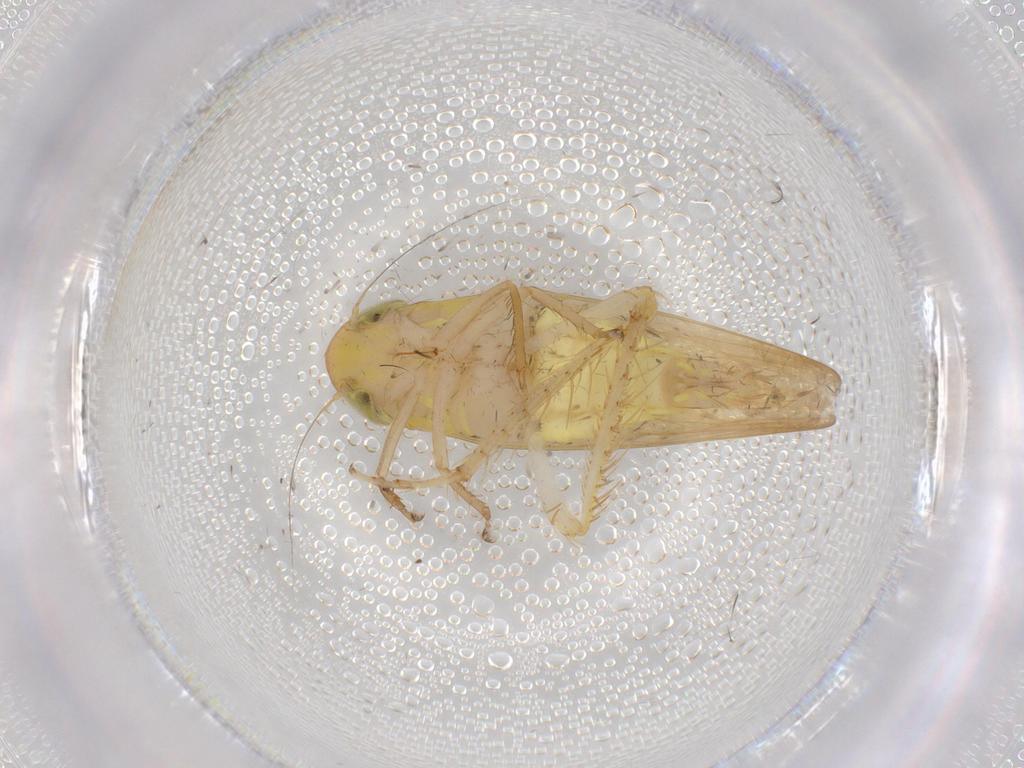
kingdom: Animalia
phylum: Arthropoda
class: Insecta
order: Hemiptera
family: Cicadellidae
